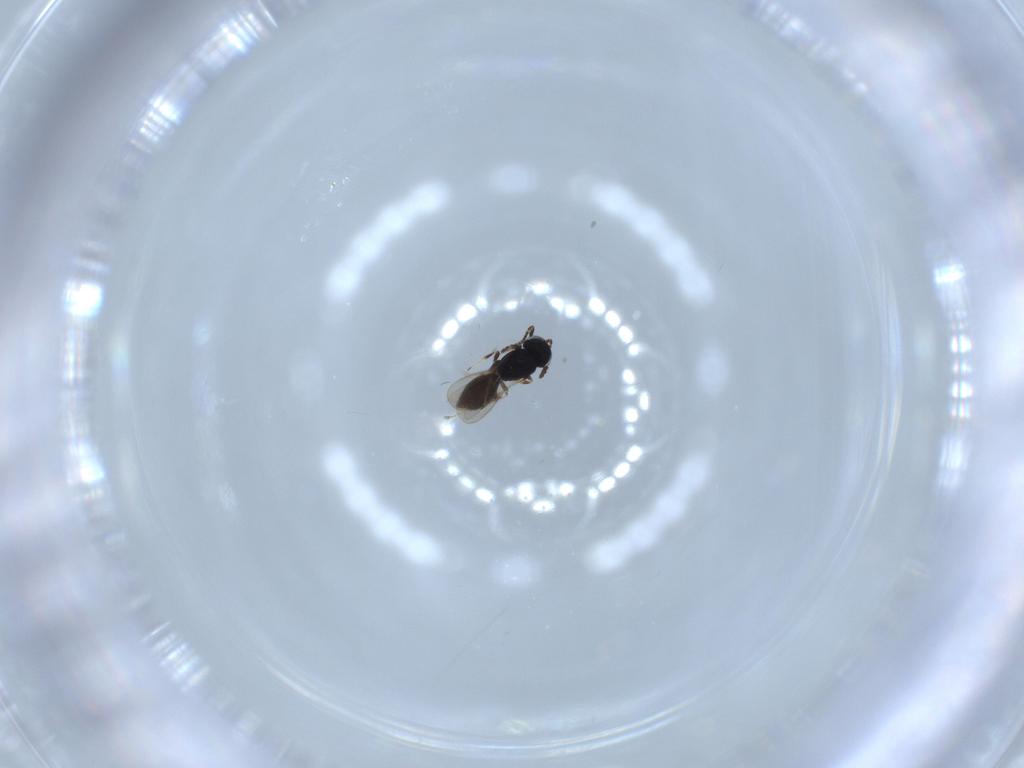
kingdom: Animalia
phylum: Arthropoda
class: Insecta
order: Hymenoptera
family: Scelionidae
